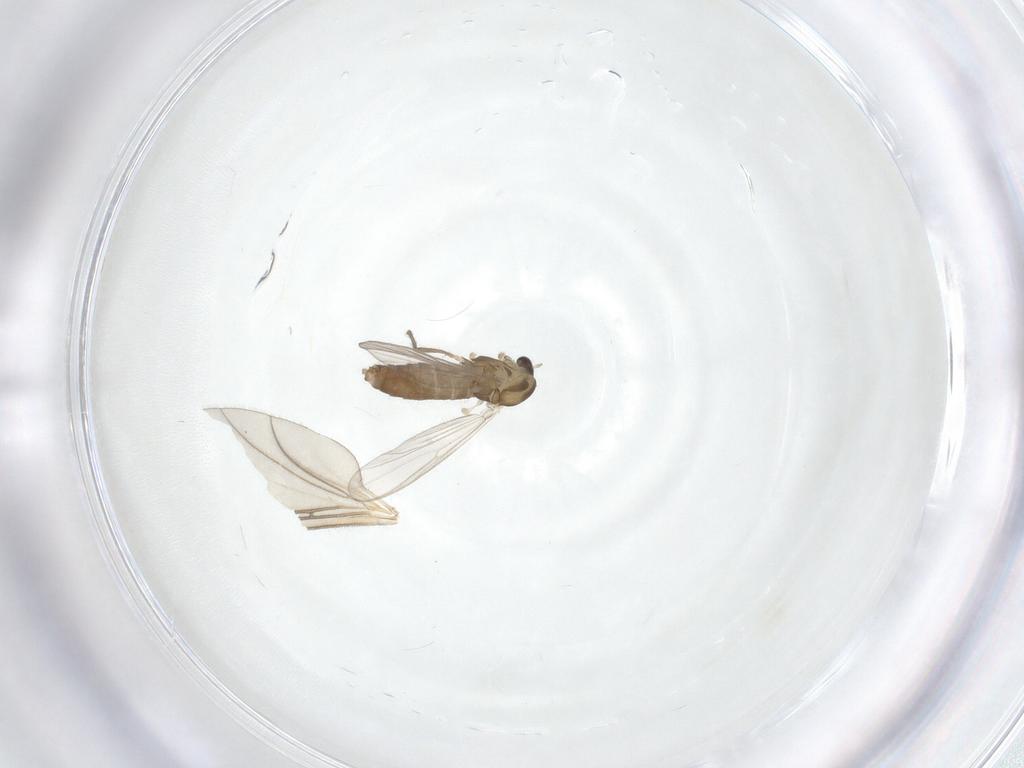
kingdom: Animalia
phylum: Arthropoda
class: Insecta
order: Diptera
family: Chironomidae
